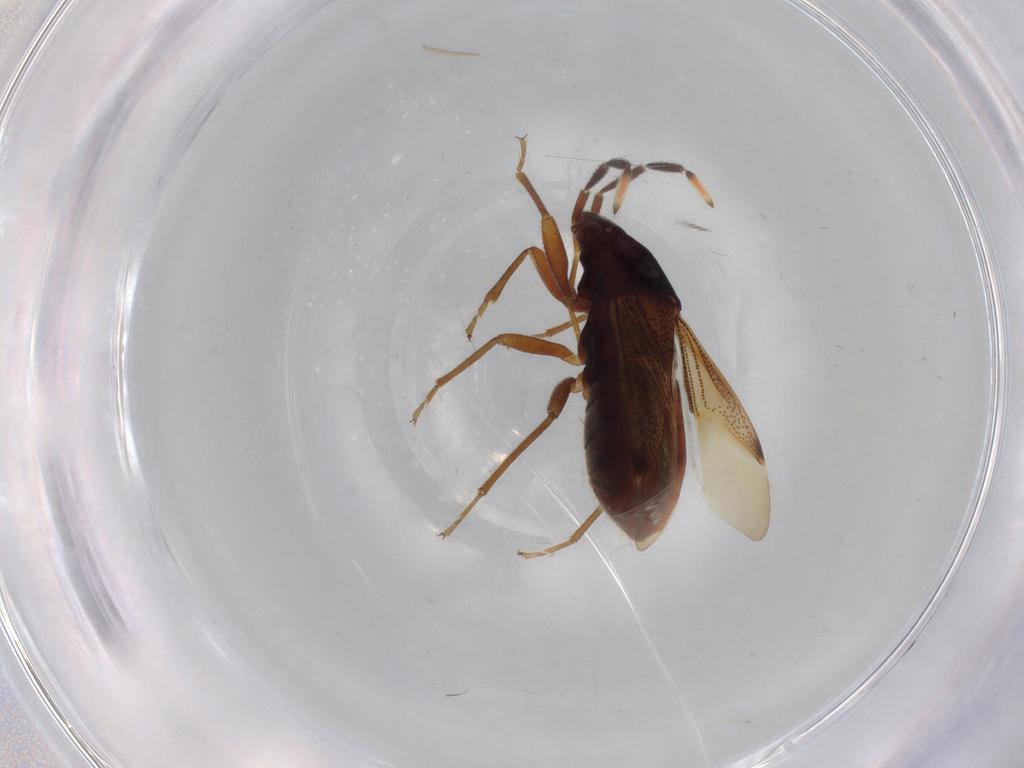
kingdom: Animalia
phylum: Arthropoda
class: Insecta
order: Hemiptera
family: Rhyparochromidae
